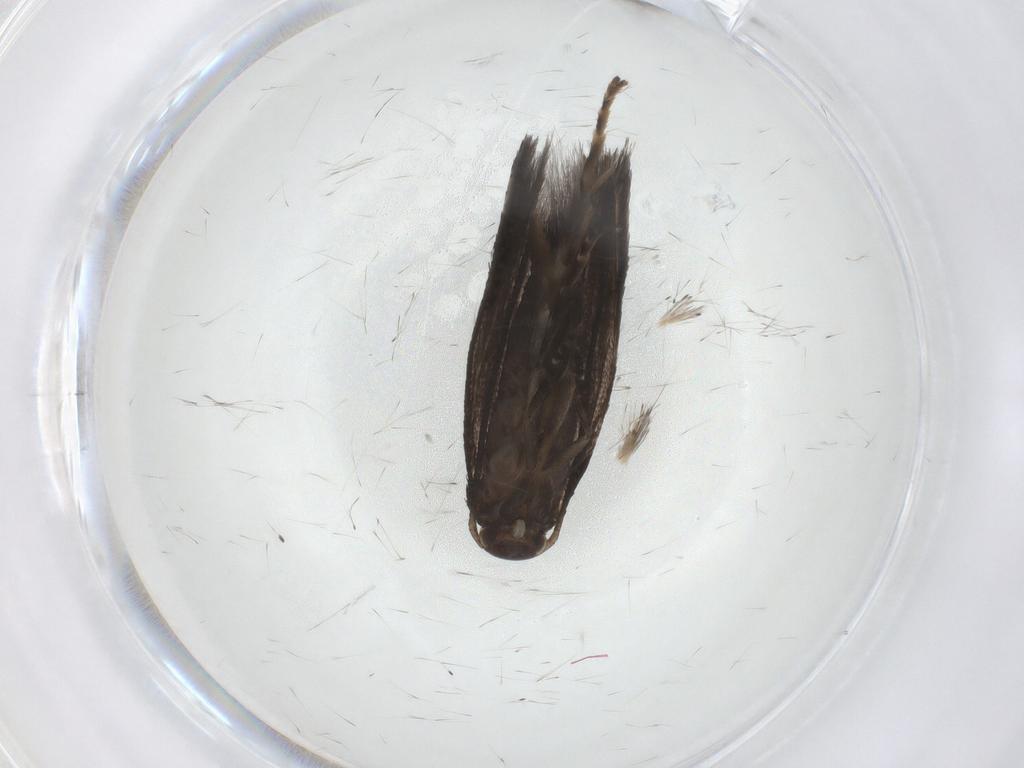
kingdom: Animalia
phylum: Arthropoda
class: Insecta
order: Lepidoptera
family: Elachistidae
